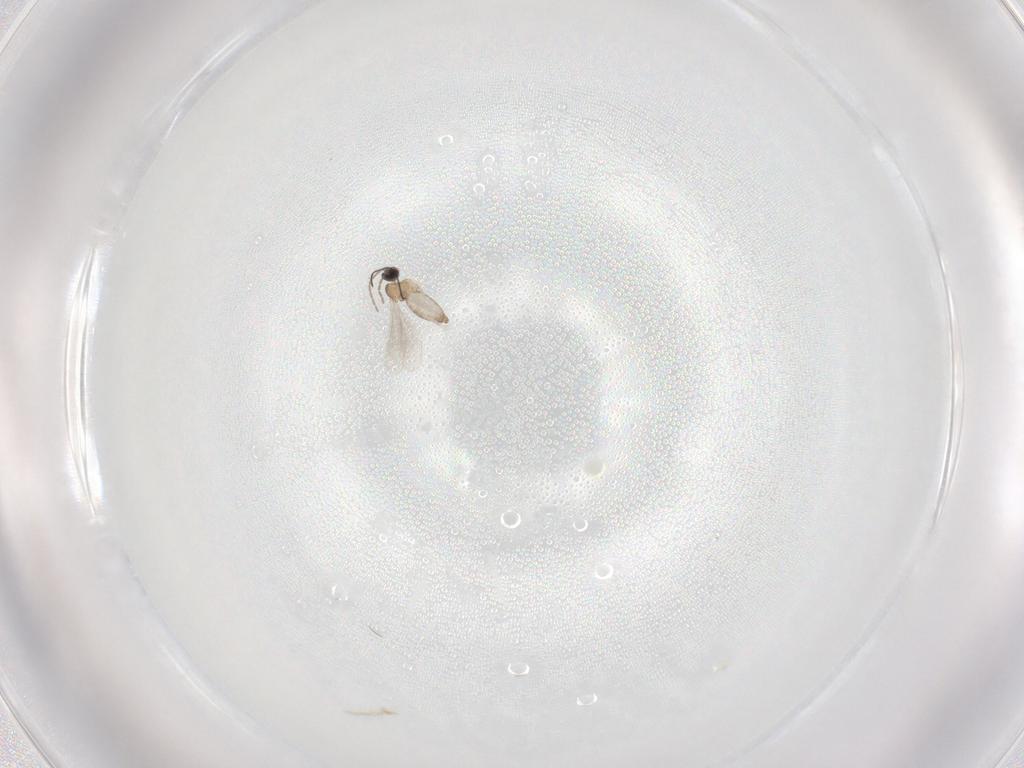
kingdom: Animalia
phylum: Arthropoda
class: Insecta
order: Diptera
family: Cecidomyiidae
